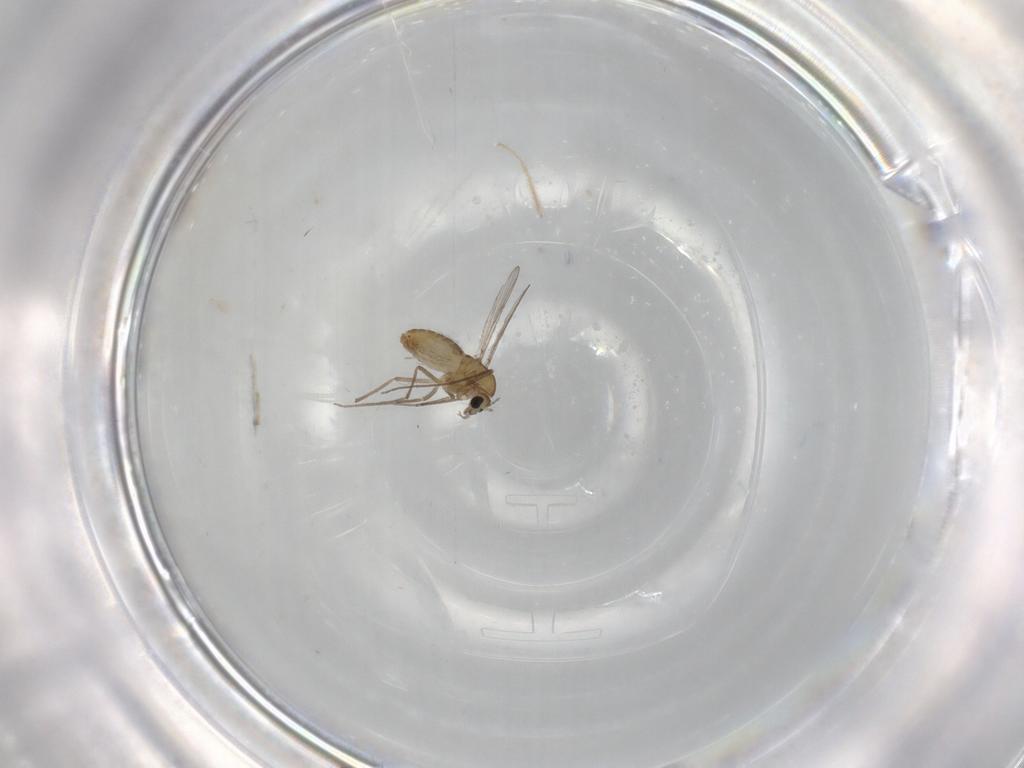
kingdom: Animalia
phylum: Arthropoda
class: Insecta
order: Diptera
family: Chironomidae
